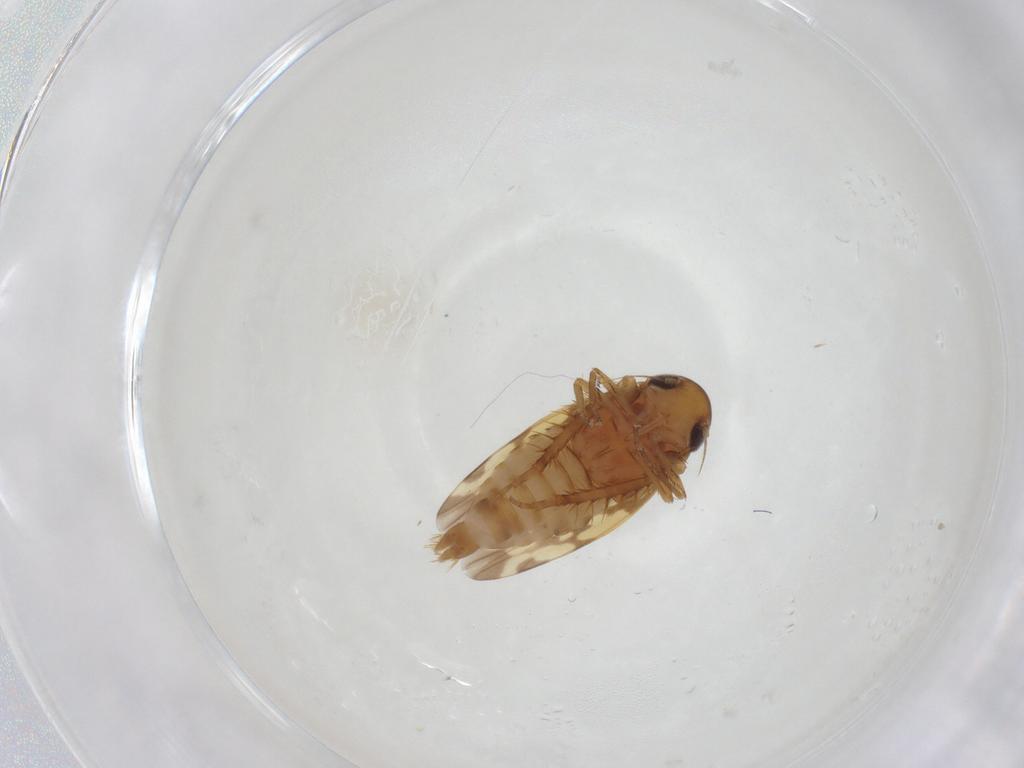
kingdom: Animalia
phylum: Arthropoda
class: Insecta
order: Hemiptera
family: Cicadellidae
